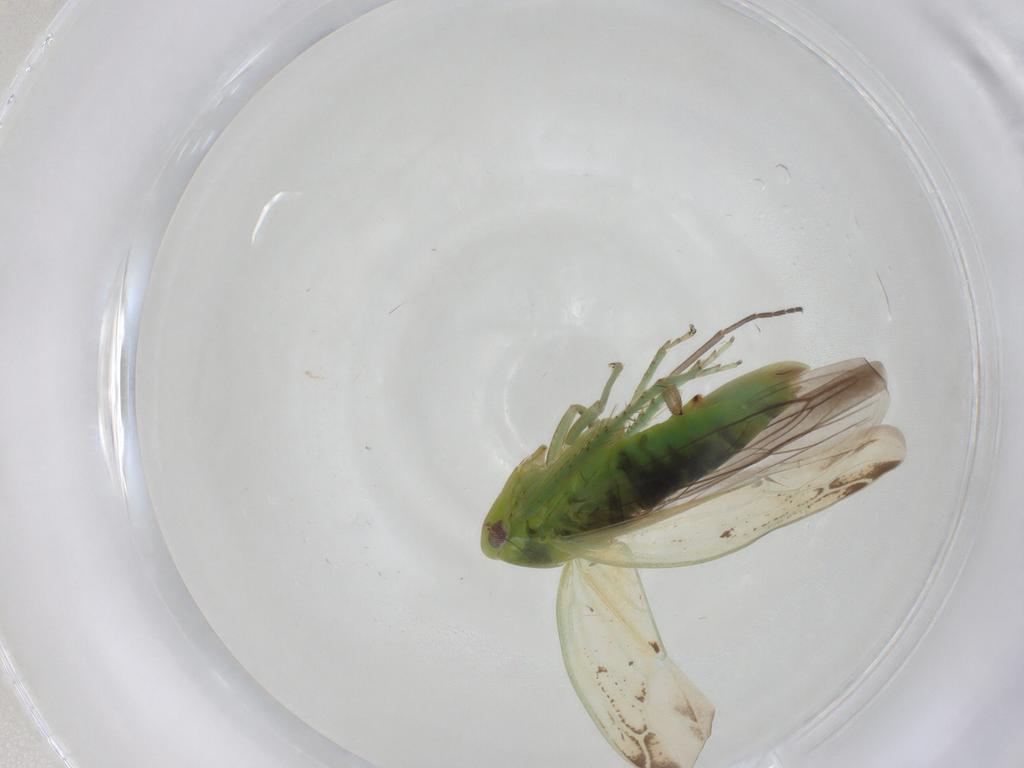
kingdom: Animalia
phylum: Arthropoda
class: Insecta
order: Hemiptera
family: Cicadellidae
